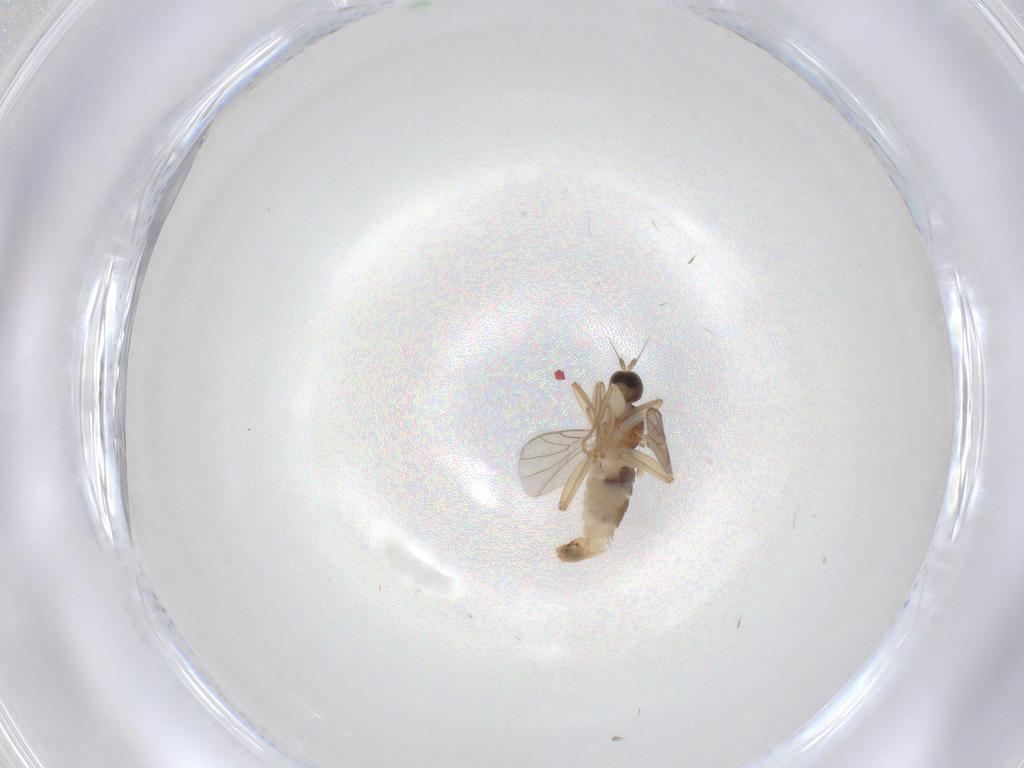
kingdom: Animalia
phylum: Arthropoda
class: Insecta
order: Diptera
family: Hybotidae
